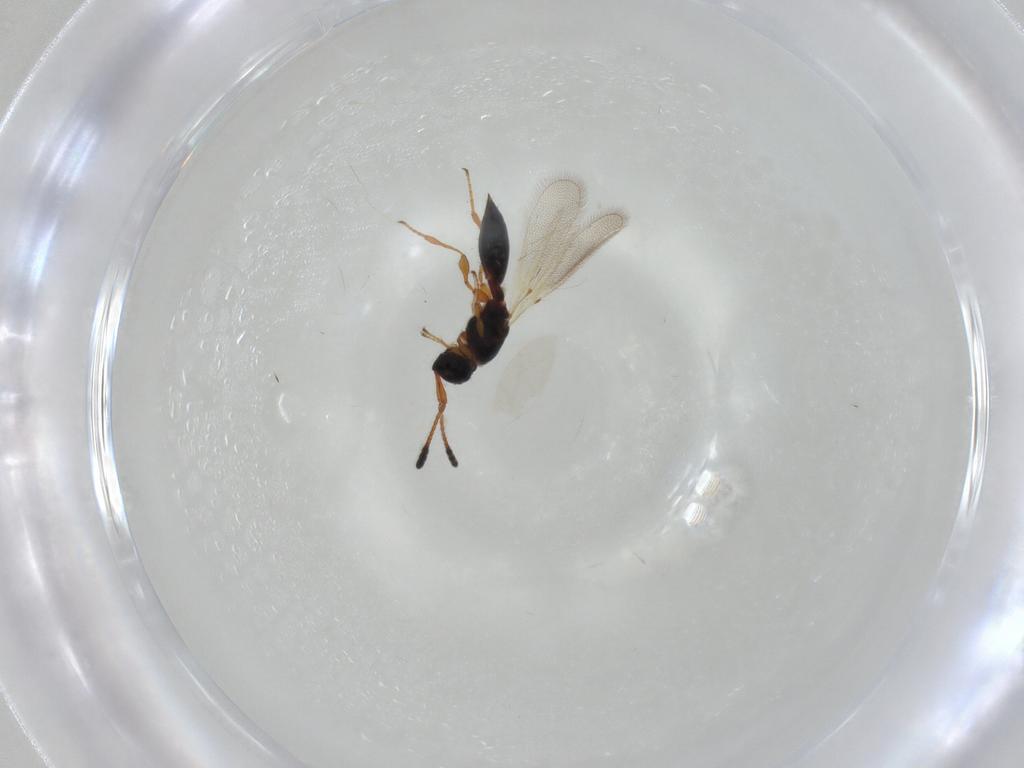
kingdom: Animalia
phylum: Arthropoda
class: Insecta
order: Hymenoptera
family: Diapriidae
